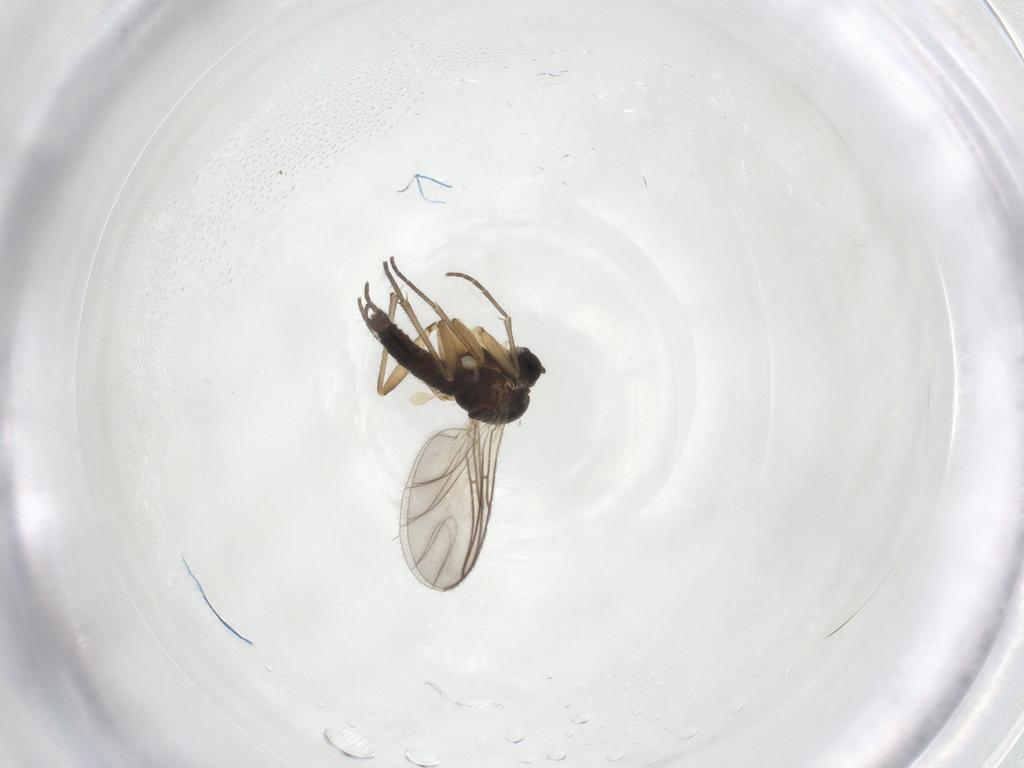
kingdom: Animalia
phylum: Arthropoda
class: Insecta
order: Diptera
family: Sciaridae
